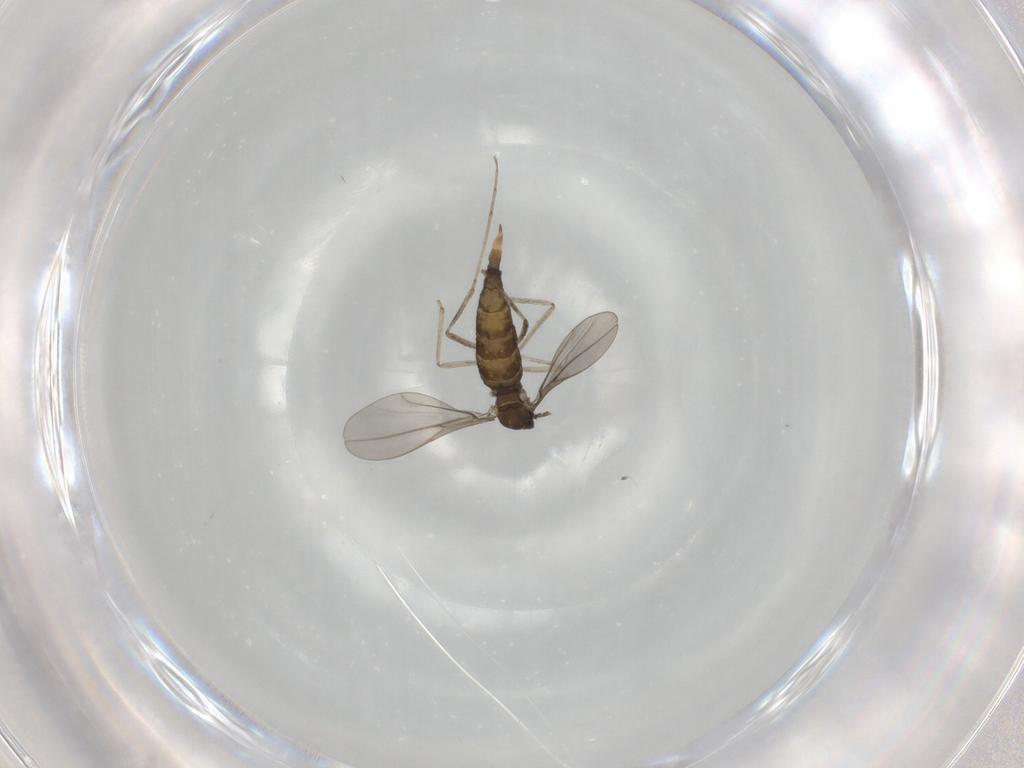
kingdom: Animalia
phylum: Arthropoda
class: Insecta
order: Diptera
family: Cecidomyiidae
